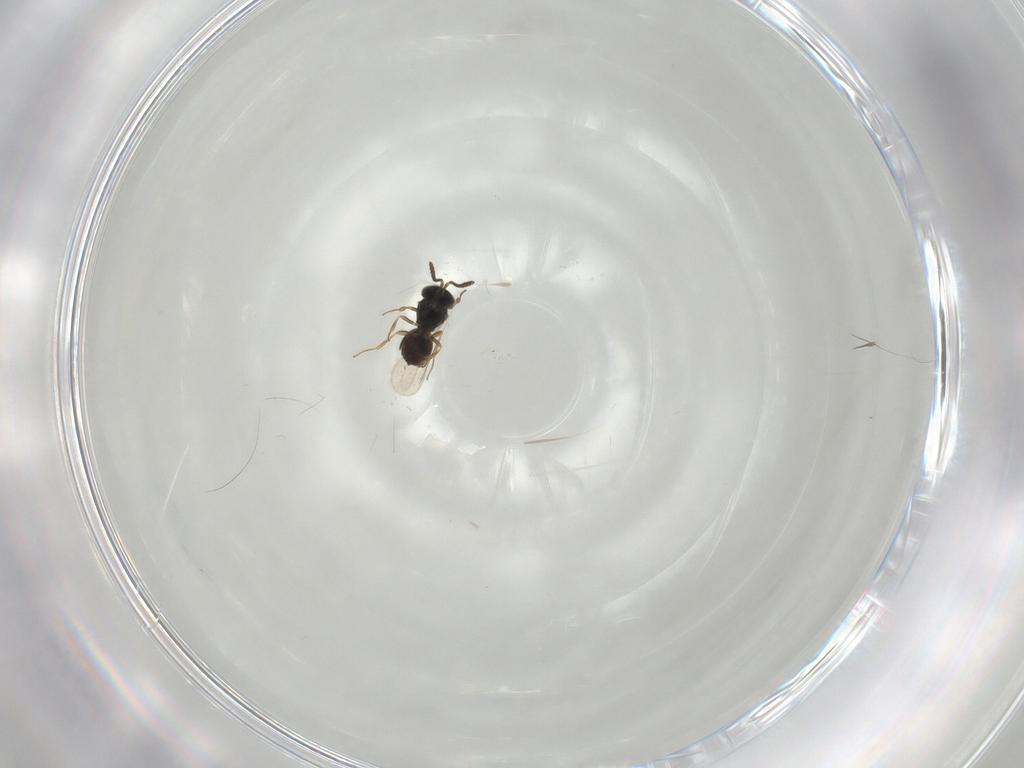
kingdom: Animalia
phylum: Arthropoda
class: Insecta
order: Hymenoptera
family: Scelionidae
